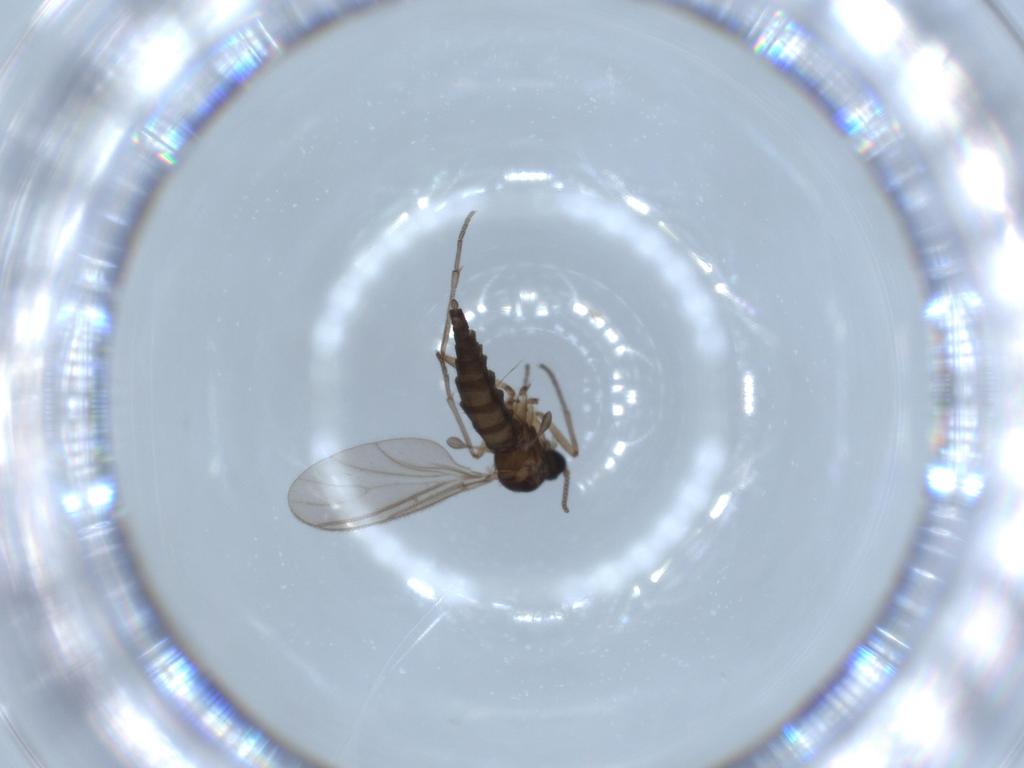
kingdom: Animalia
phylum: Arthropoda
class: Insecta
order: Diptera
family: Sciaridae
